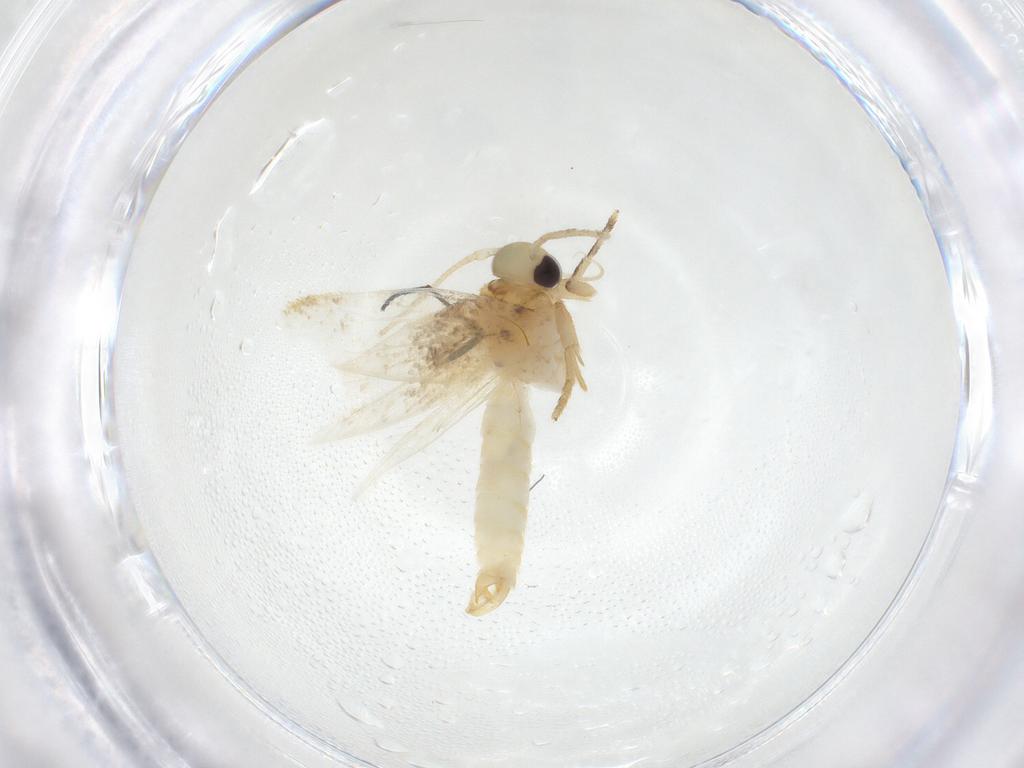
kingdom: Animalia
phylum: Arthropoda
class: Insecta
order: Lepidoptera
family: Erebidae
